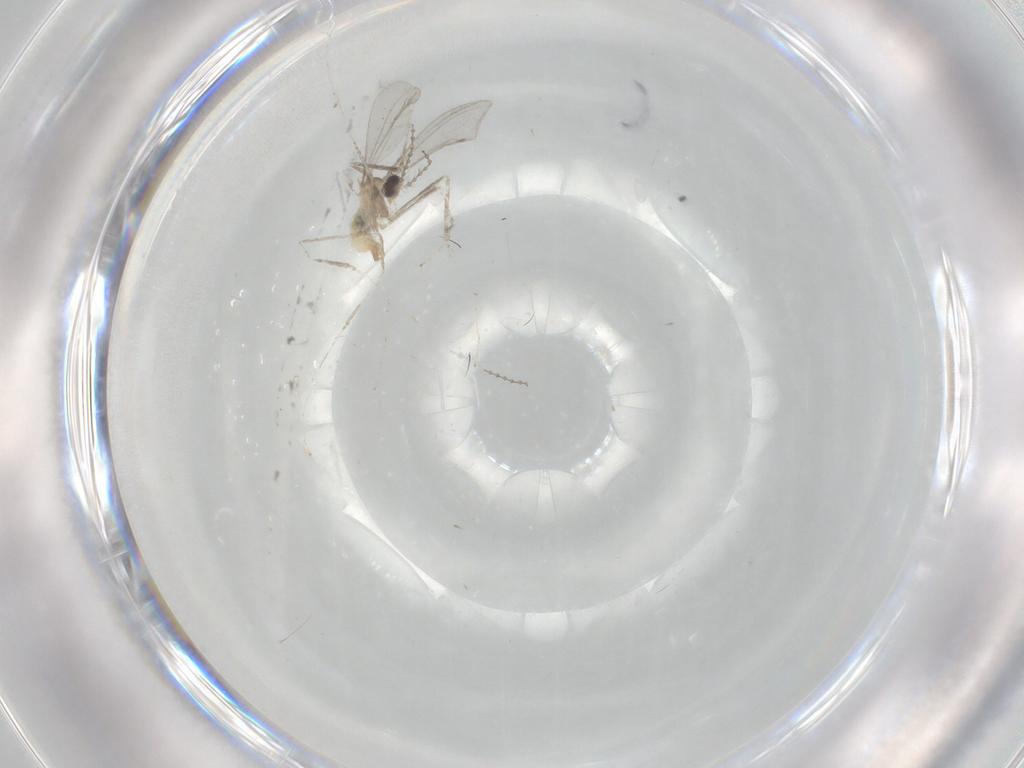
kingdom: Animalia
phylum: Arthropoda
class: Insecta
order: Diptera
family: Cecidomyiidae
